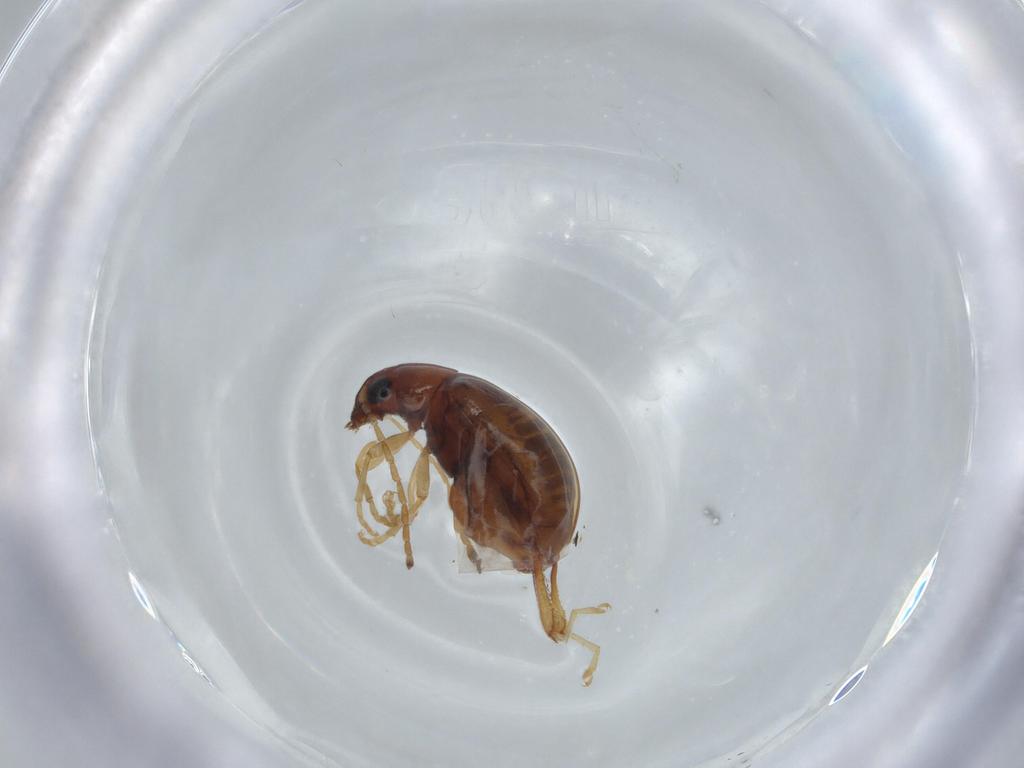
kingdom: Animalia
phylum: Arthropoda
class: Insecta
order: Coleoptera
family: Chrysomelidae
